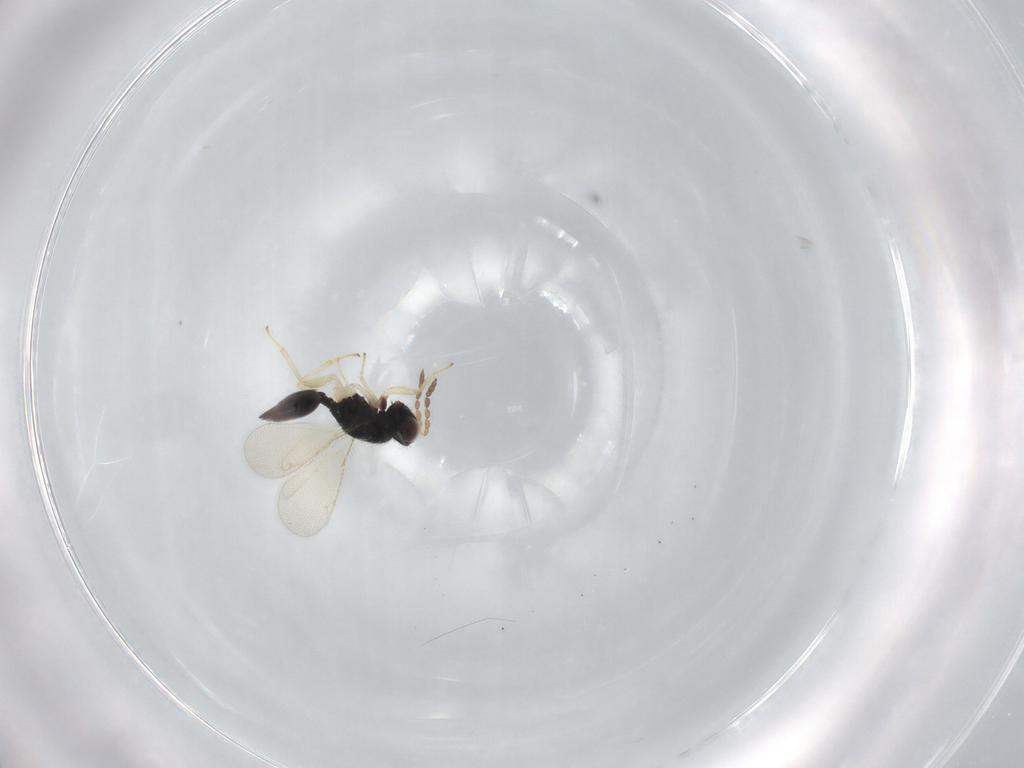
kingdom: Animalia
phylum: Arthropoda
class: Insecta
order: Hymenoptera
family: Eulophidae
